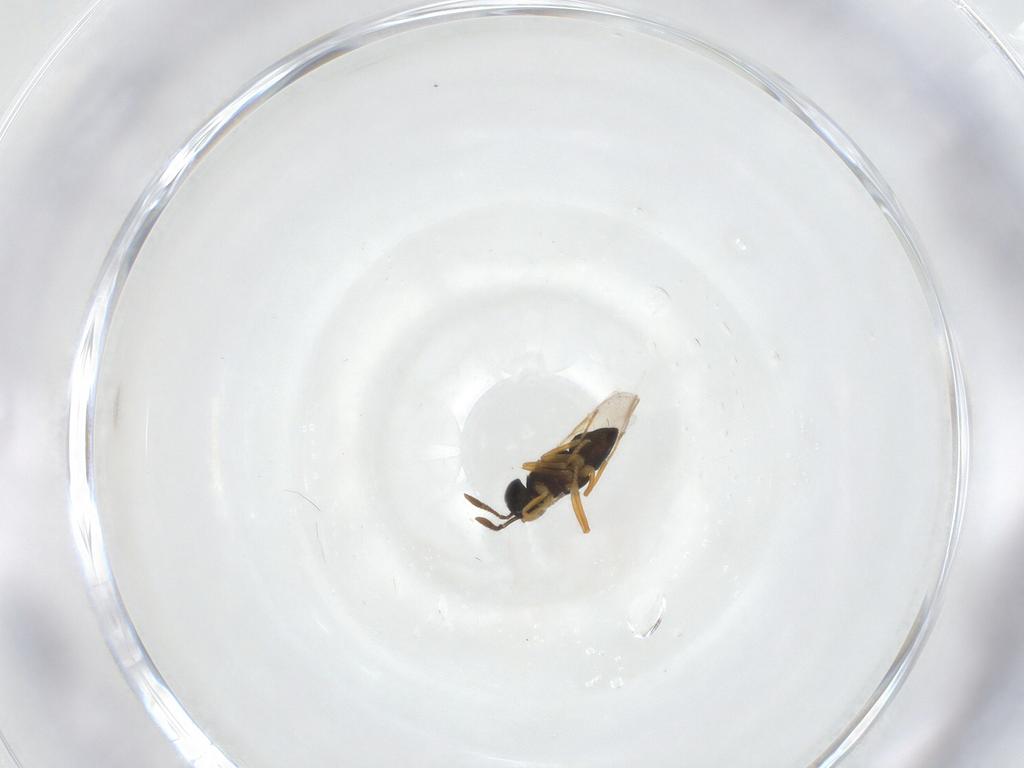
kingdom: Animalia
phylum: Arthropoda
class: Insecta
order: Hymenoptera
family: Encyrtidae
